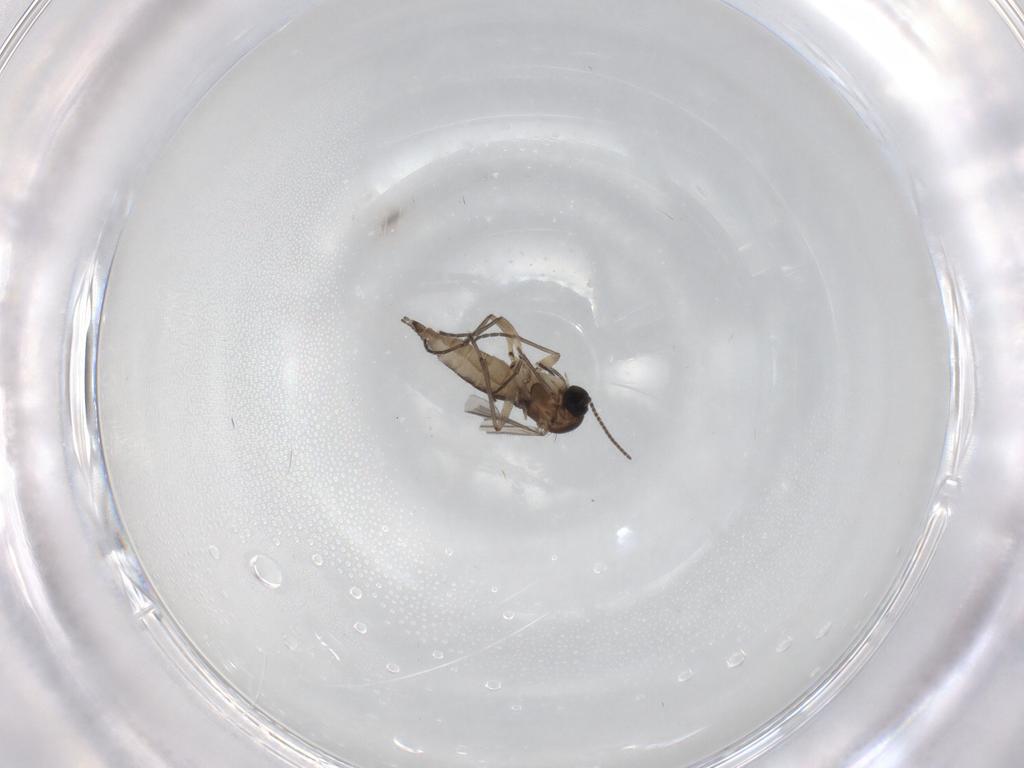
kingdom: Animalia
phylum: Arthropoda
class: Insecta
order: Diptera
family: Sciaridae
